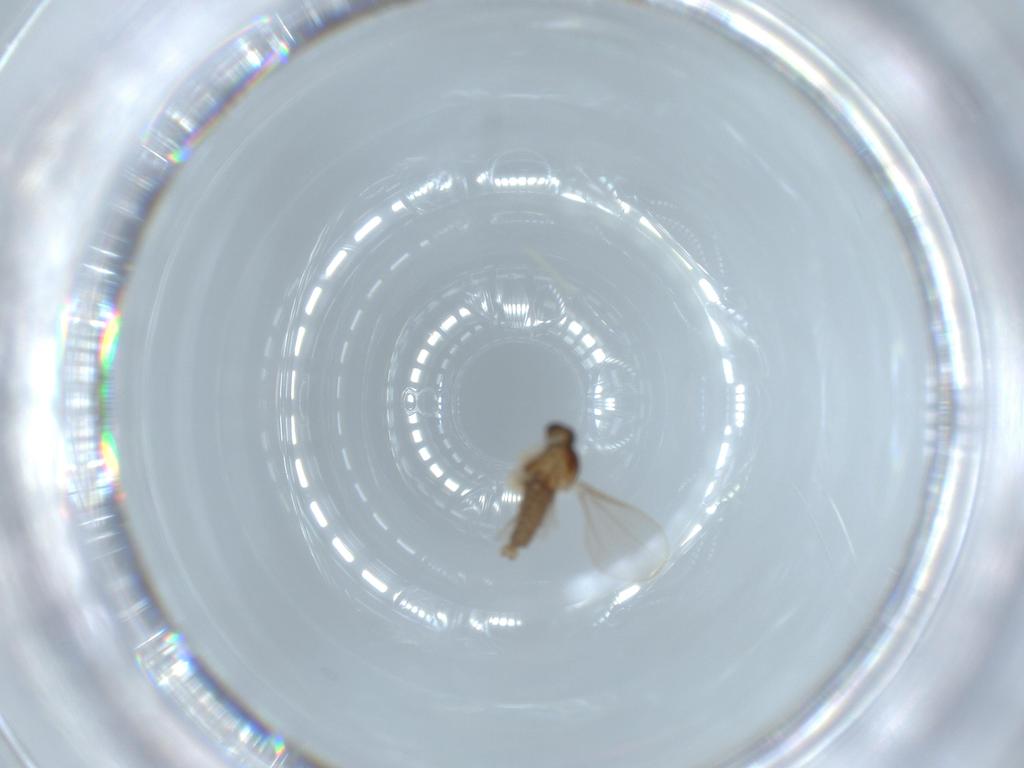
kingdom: Animalia
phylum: Arthropoda
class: Insecta
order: Diptera
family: Cecidomyiidae
